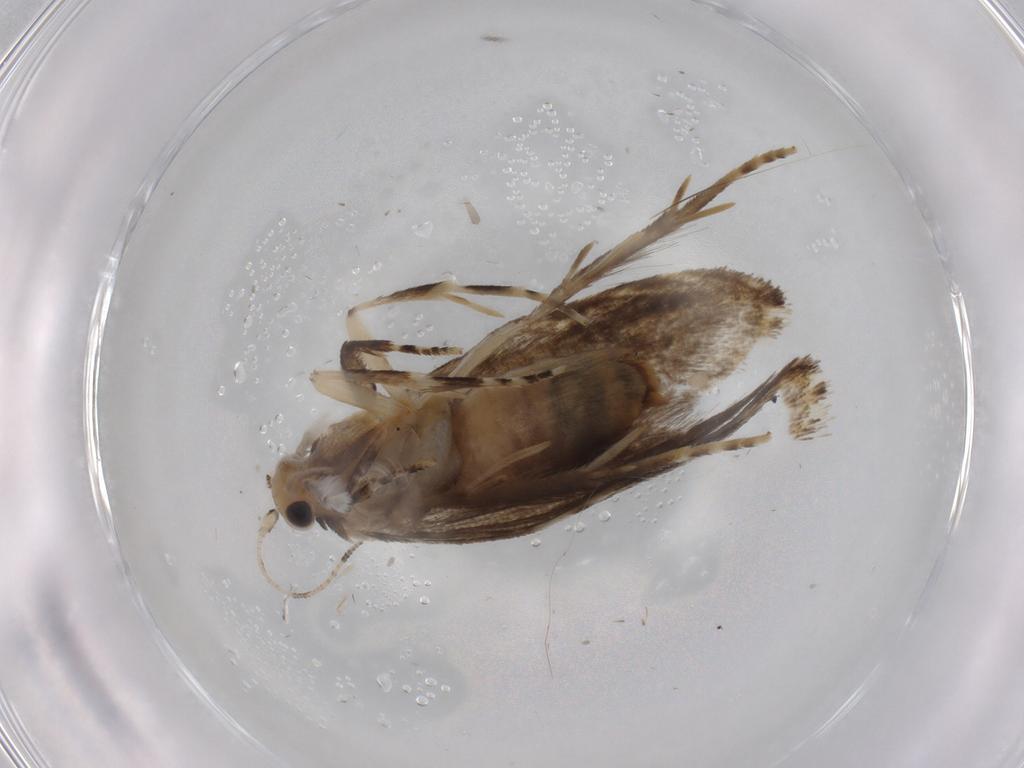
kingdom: Animalia
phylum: Arthropoda
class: Insecta
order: Lepidoptera
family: Tineidae
